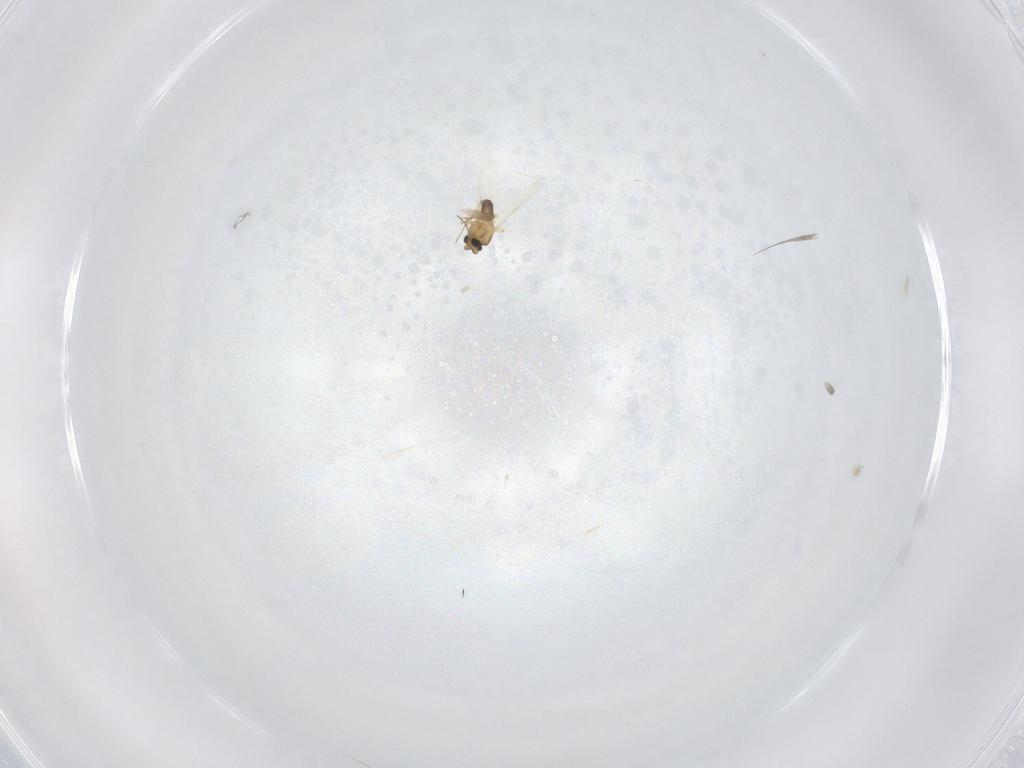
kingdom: Animalia
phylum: Arthropoda
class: Insecta
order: Diptera
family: Ceratopogonidae
